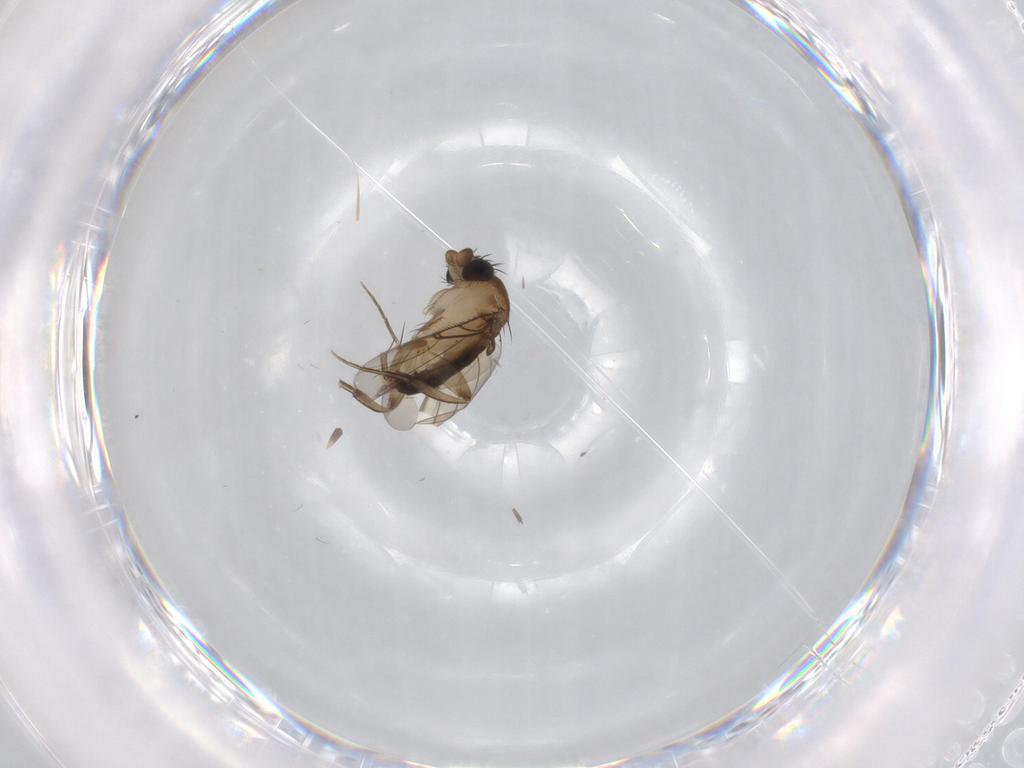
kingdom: Animalia
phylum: Arthropoda
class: Insecta
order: Diptera
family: Phoridae
